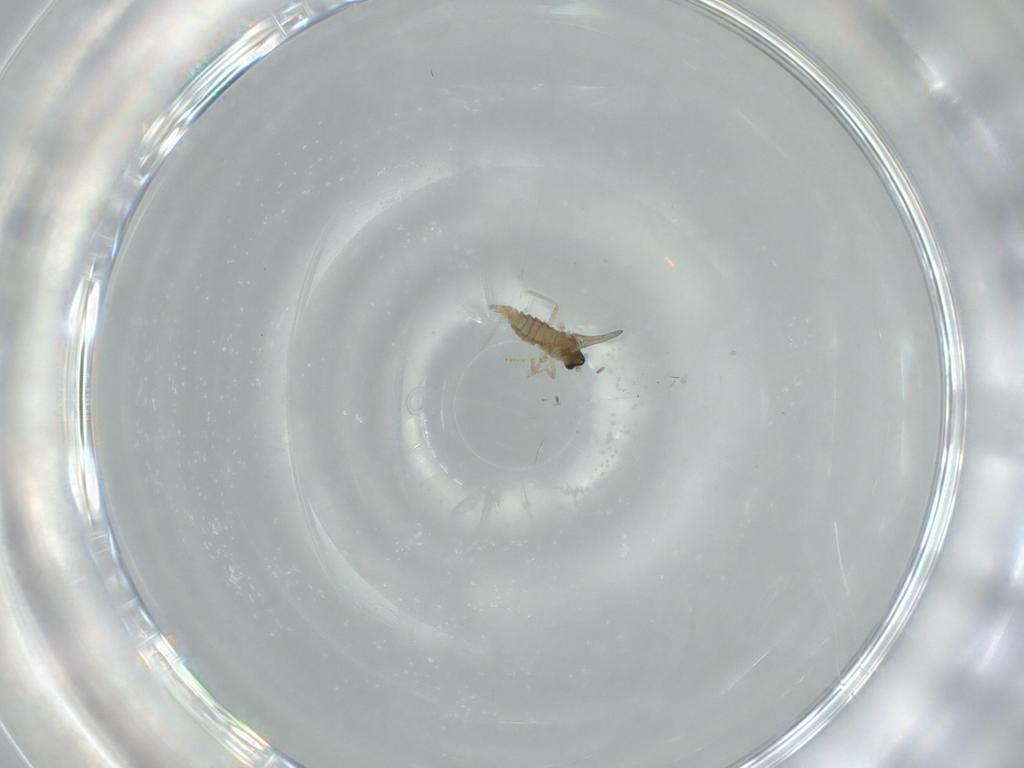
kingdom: Animalia
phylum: Arthropoda
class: Insecta
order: Diptera
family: Cecidomyiidae
